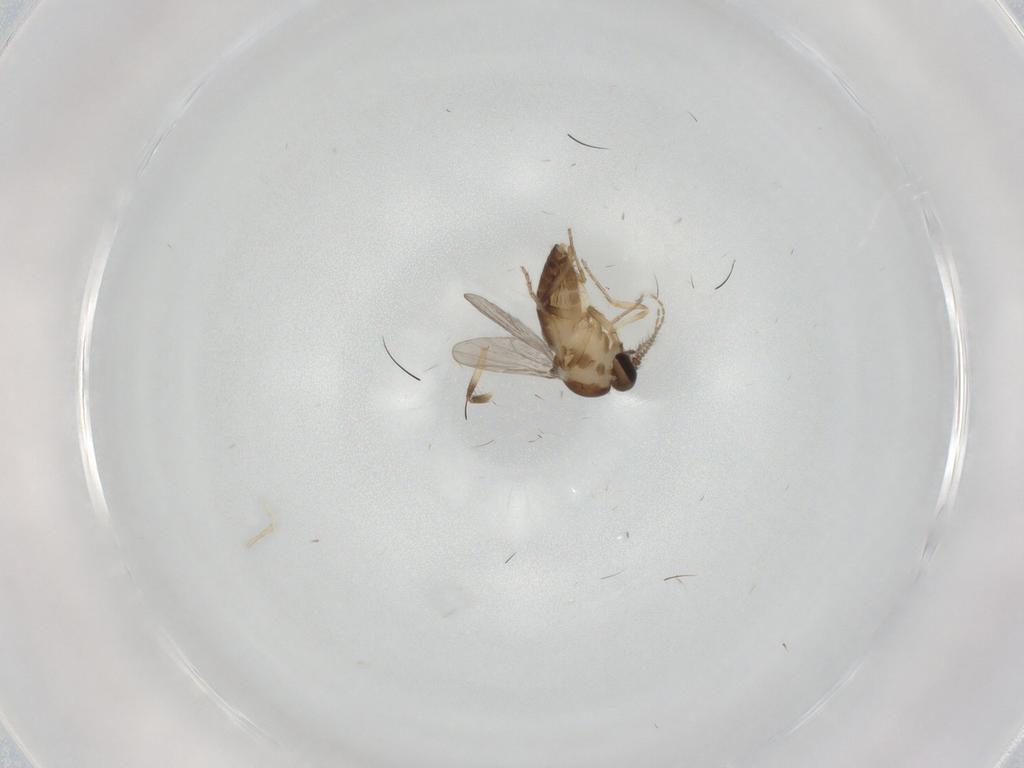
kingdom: Animalia
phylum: Arthropoda
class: Insecta
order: Diptera
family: Ceratopogonidae
